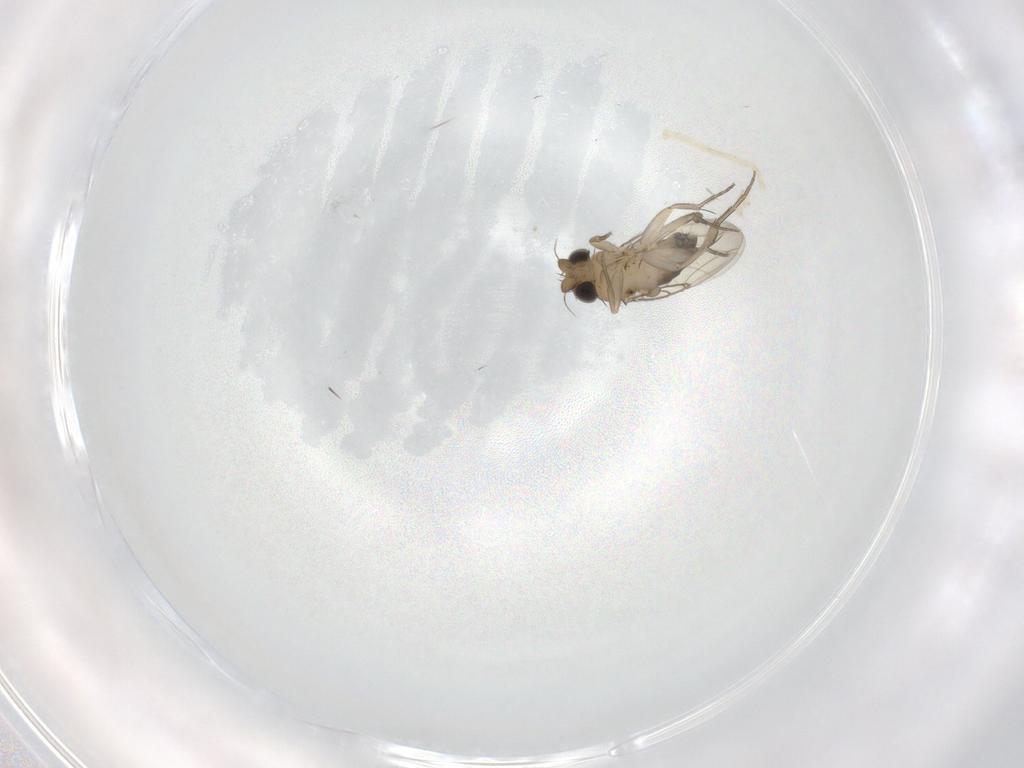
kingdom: Animalia
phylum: Arthropoda
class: Insecta
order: Diptera
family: Phoridae
